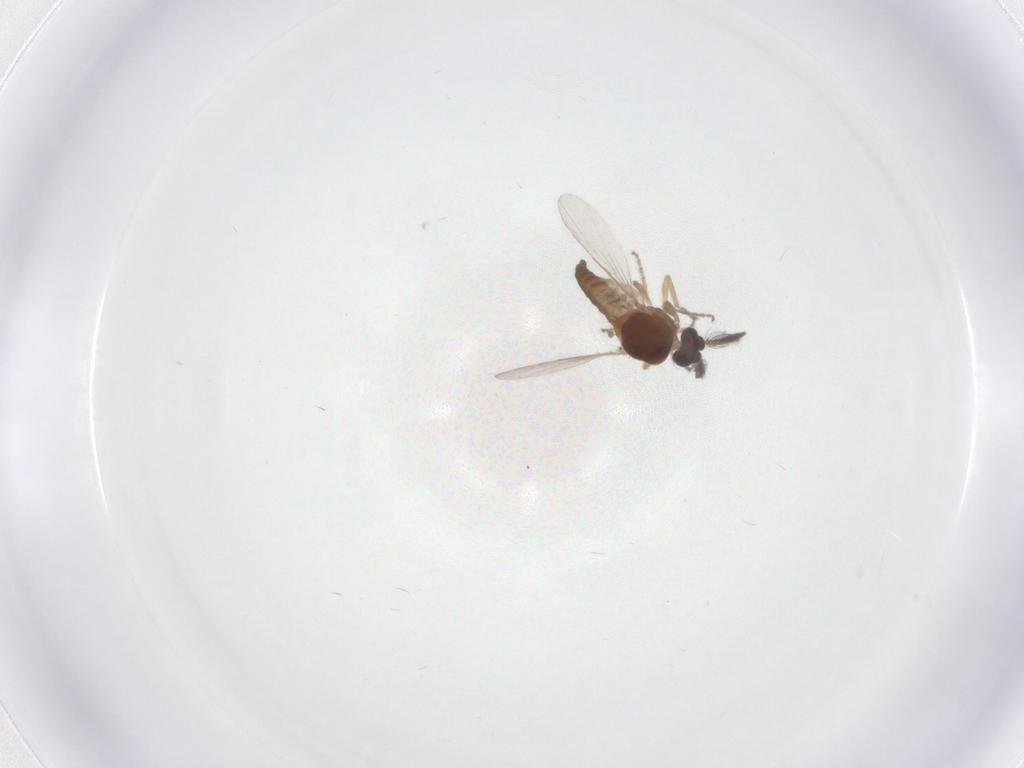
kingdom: Animalia
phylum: Arthropoda
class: Insecta
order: Diptera
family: Ceratopogonidae
